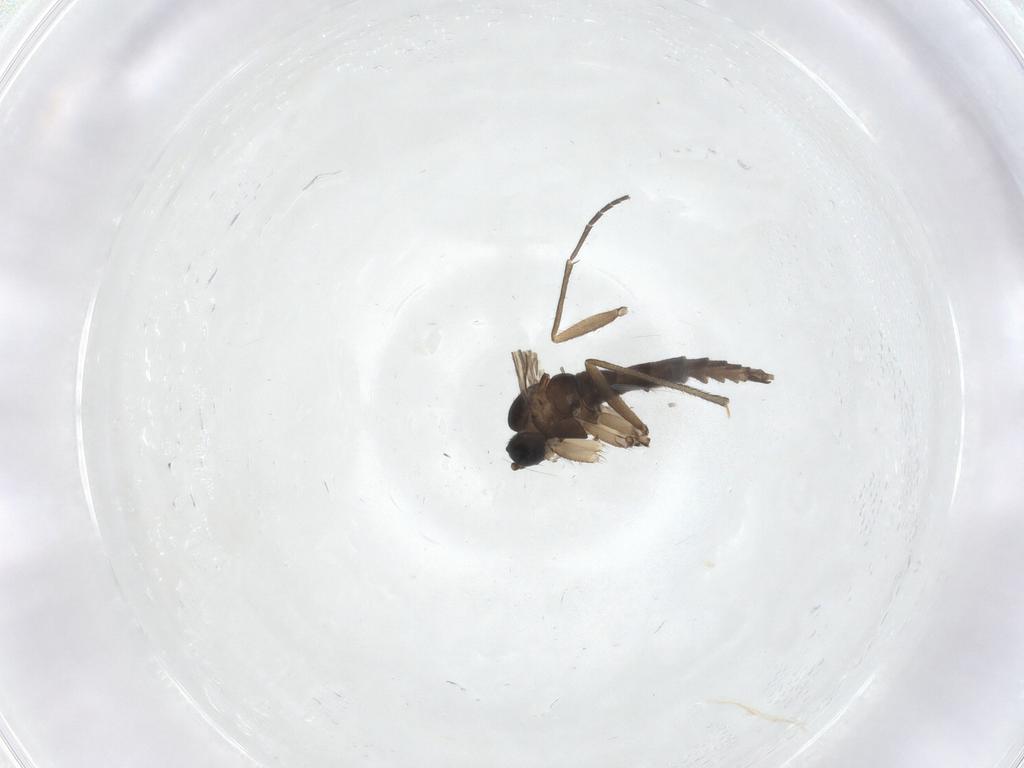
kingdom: Animalia
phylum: Arthropoda
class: Insecta
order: Diptera
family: Sciaridae
